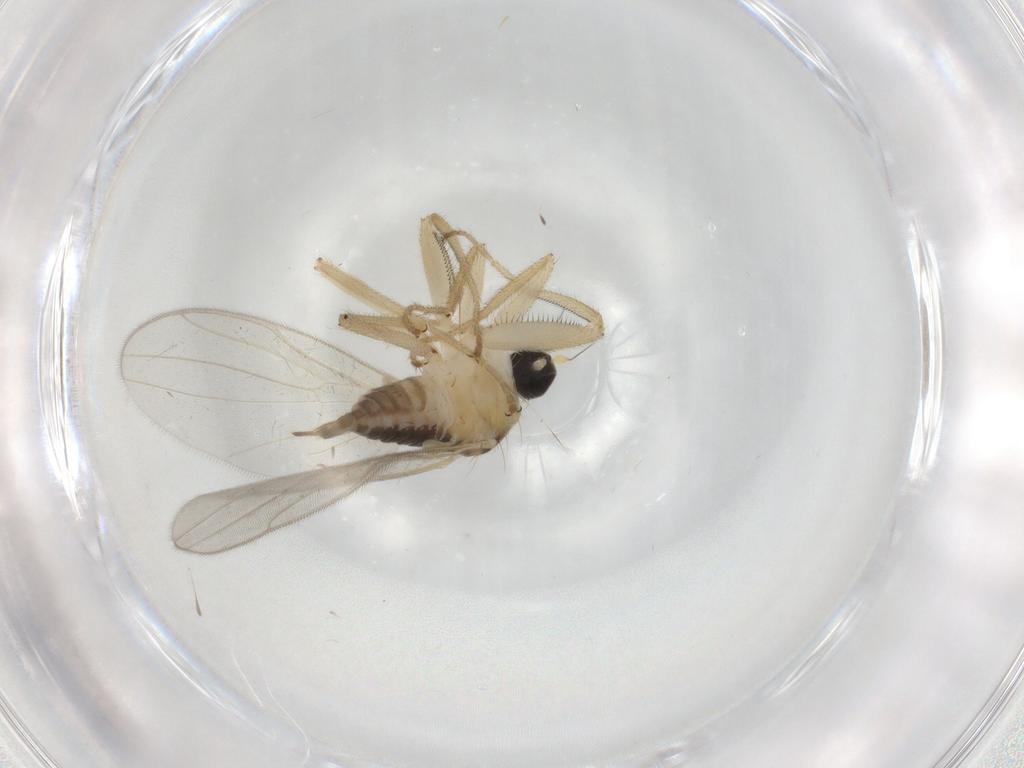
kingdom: Animalia
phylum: Arthropoda
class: Insecta
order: Diptera
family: Hybotidae
